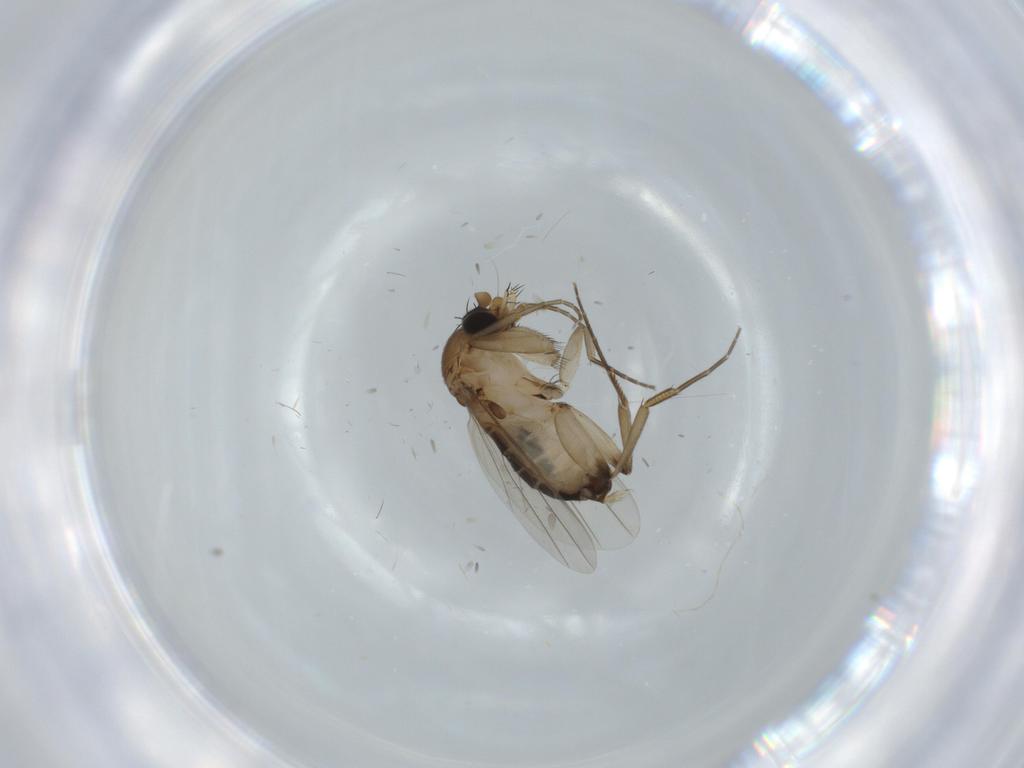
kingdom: Animalia
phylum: Arthropoda
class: Insecta
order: Diptera
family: Phoridae
